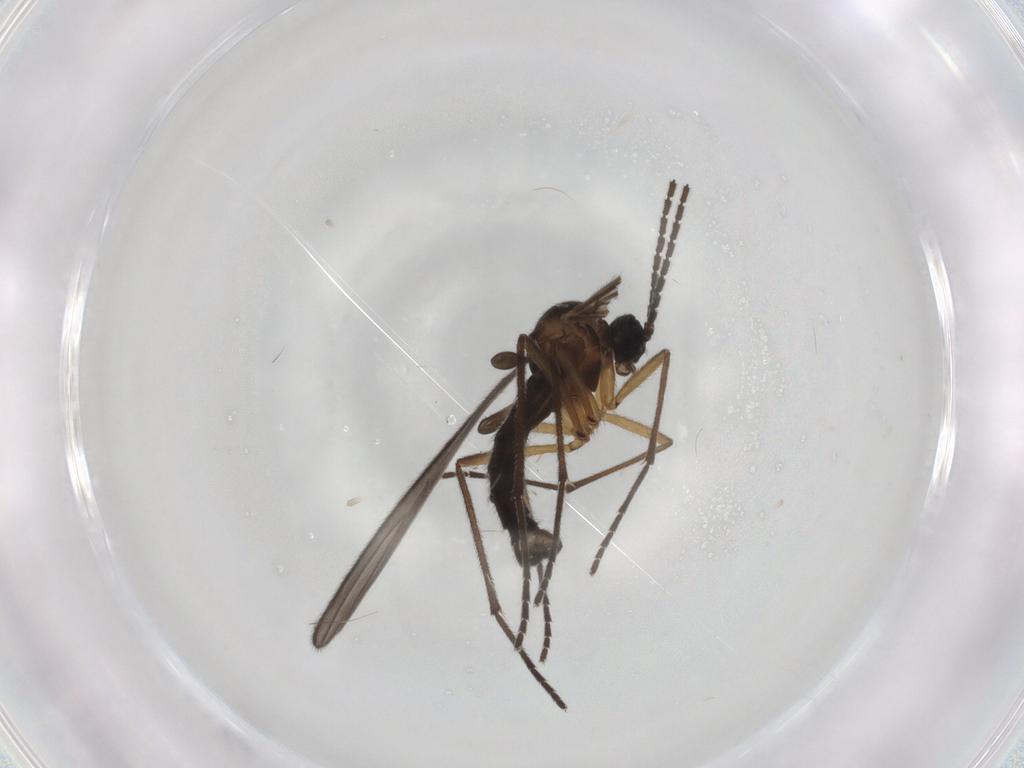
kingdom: Animalia
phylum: Arthropoda
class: Insecta
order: Diptera
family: Sciaridae
